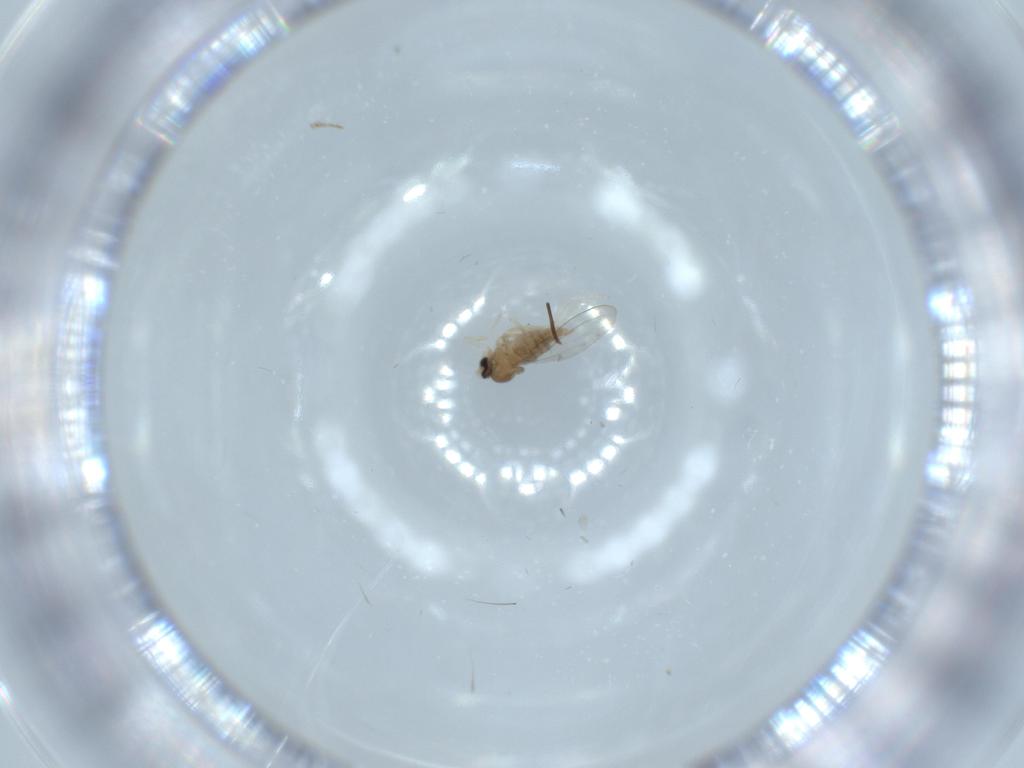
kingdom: Animalia
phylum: Arthropoda
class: Insecta
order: Diptera
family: Cecidomyiidae
